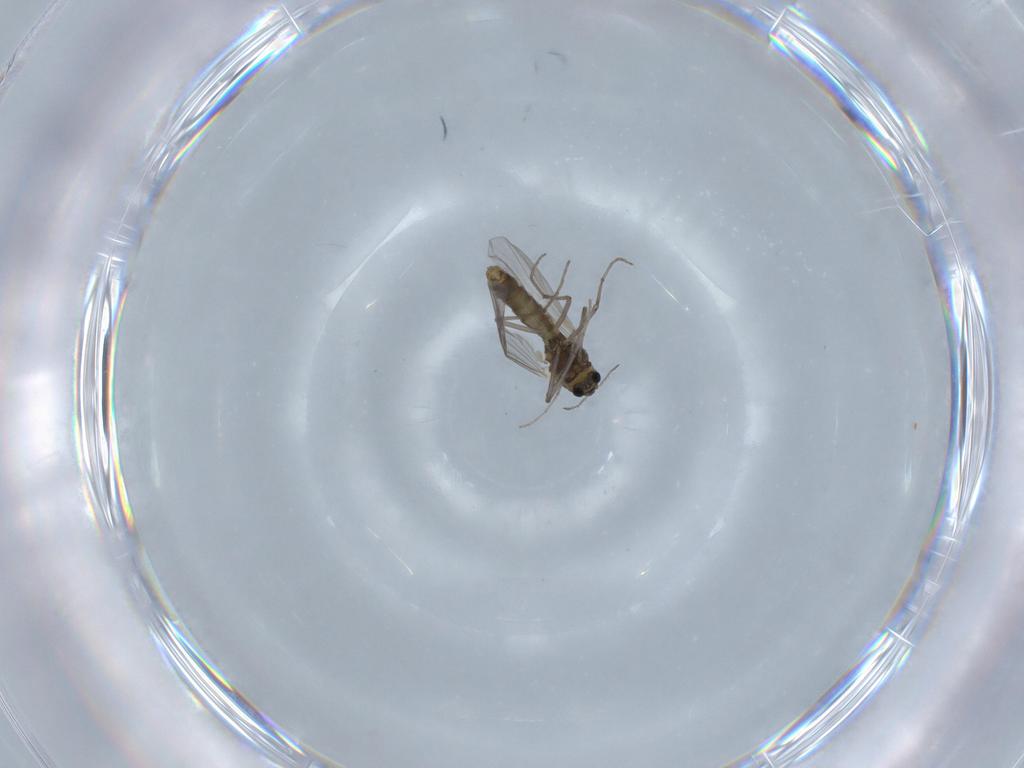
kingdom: Animalia
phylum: Arthropoda
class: Insecta
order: Diptera
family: Chironomidae
